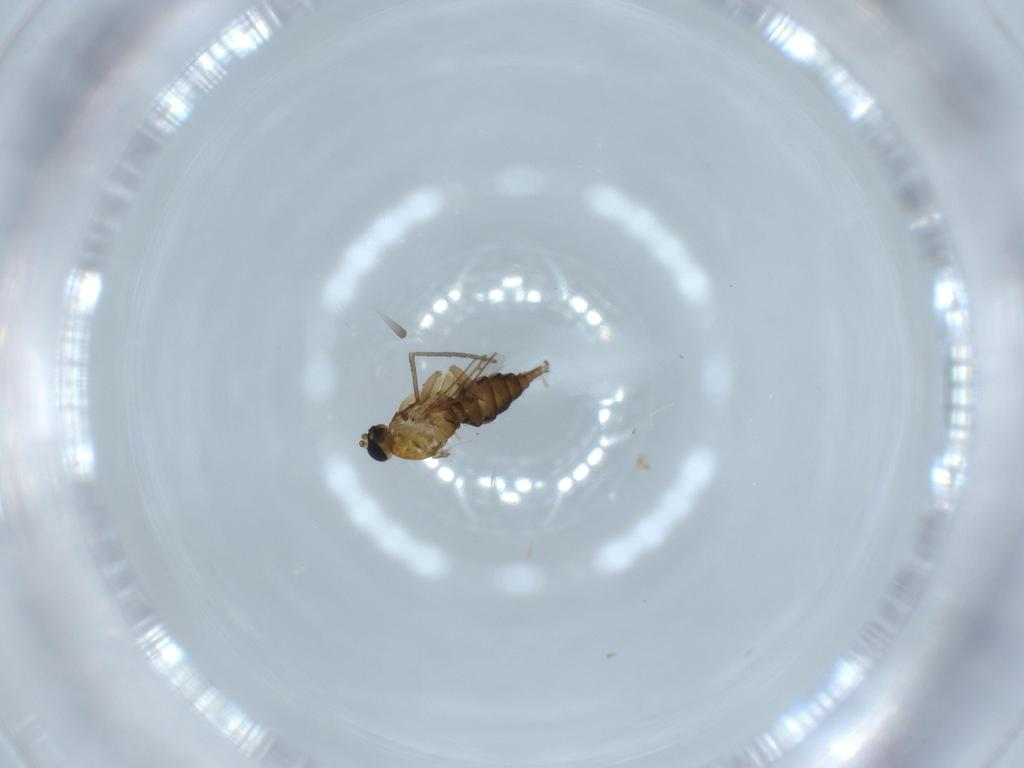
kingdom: Animalia
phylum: Arthropoda
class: Insecta
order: Diptera
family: Sciaridae
